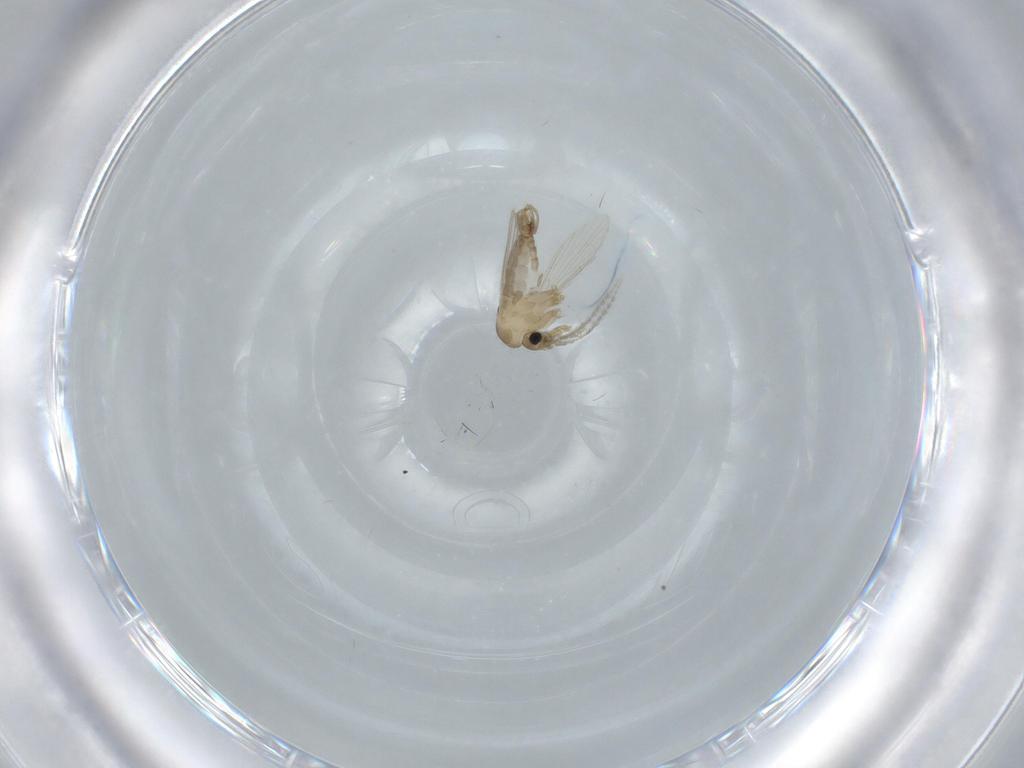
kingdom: Animalia
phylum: Arthropoda
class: Insecta
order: Diptera
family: Psychodidae
